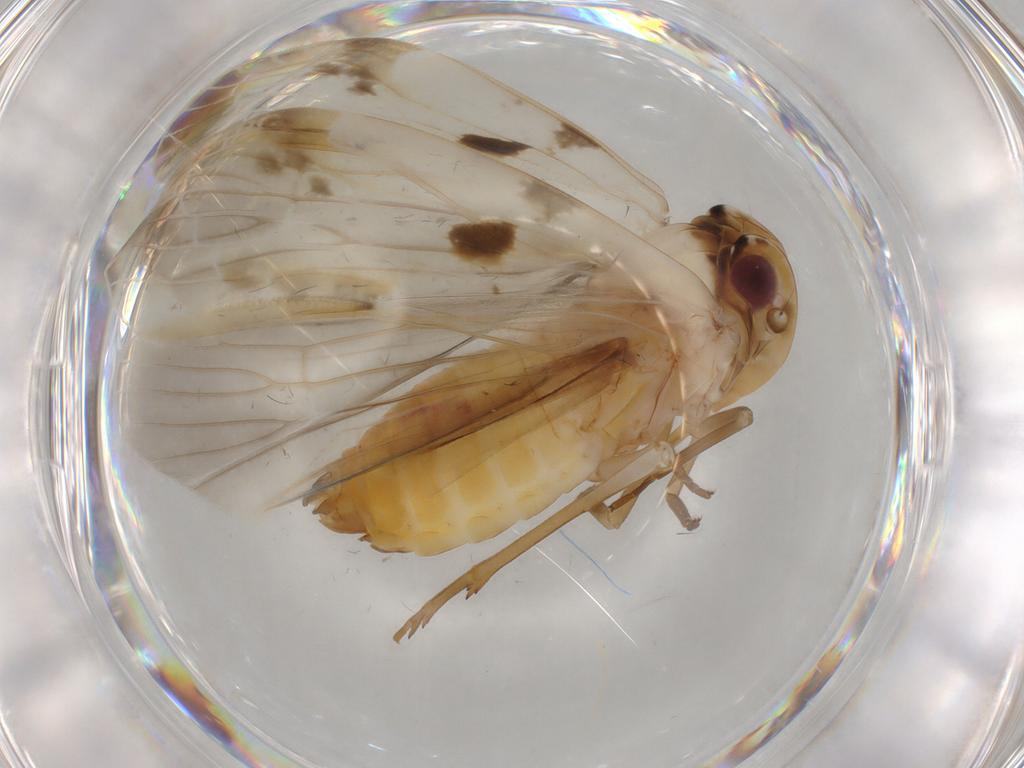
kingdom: Animalia
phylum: Arthropoda
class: Insecta
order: Hemiptera
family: Achilidae
